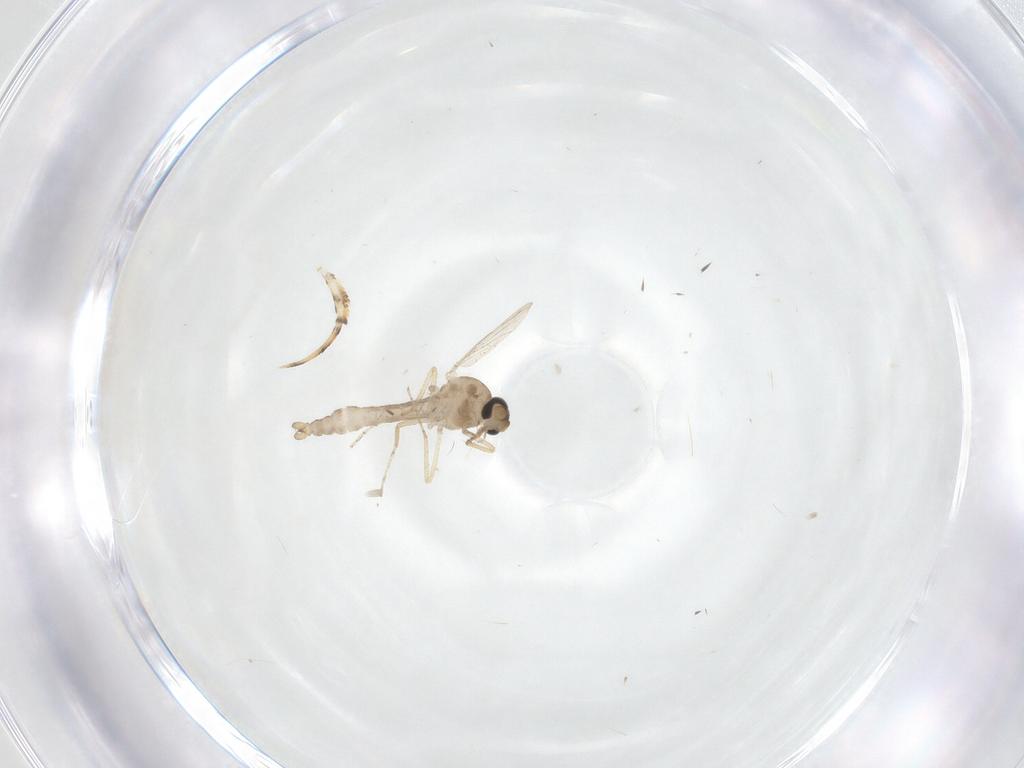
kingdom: Animalia
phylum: Arthropoda
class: Insecta
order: Diptera
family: Ceratopogonidae
